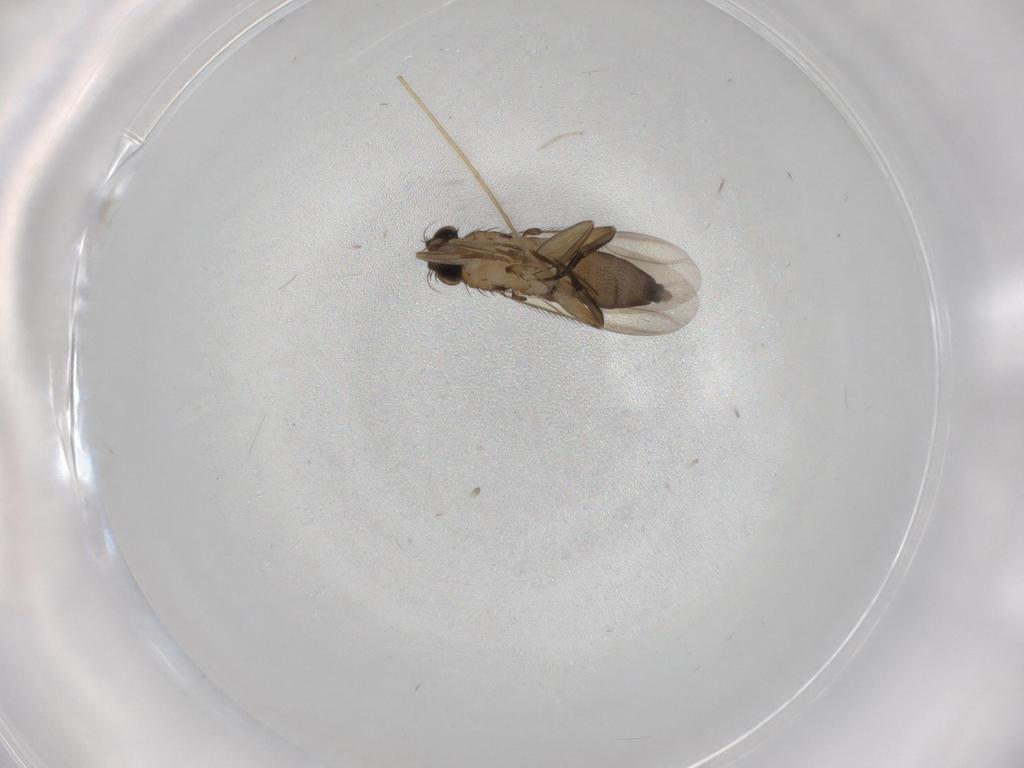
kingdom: Animalia
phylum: Arthropoda
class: Insecta
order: Diptera
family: Phoridae
